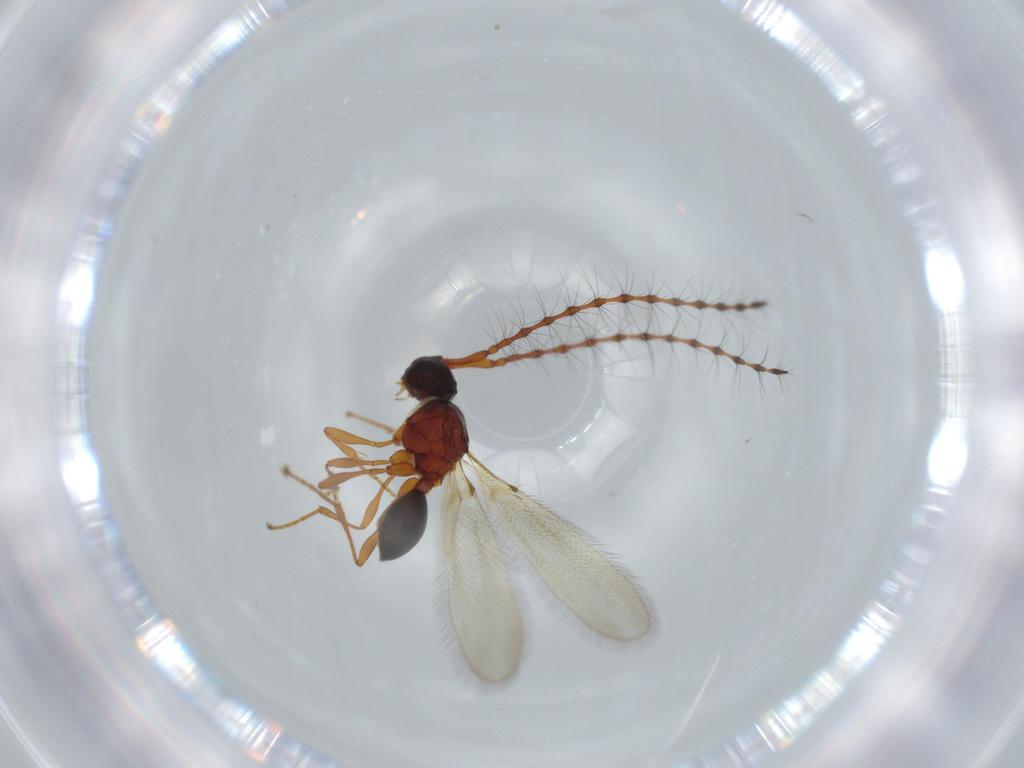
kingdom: Animalia
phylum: Arthropoda
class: Insecta
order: Hymenoptera
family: Diapriidae
